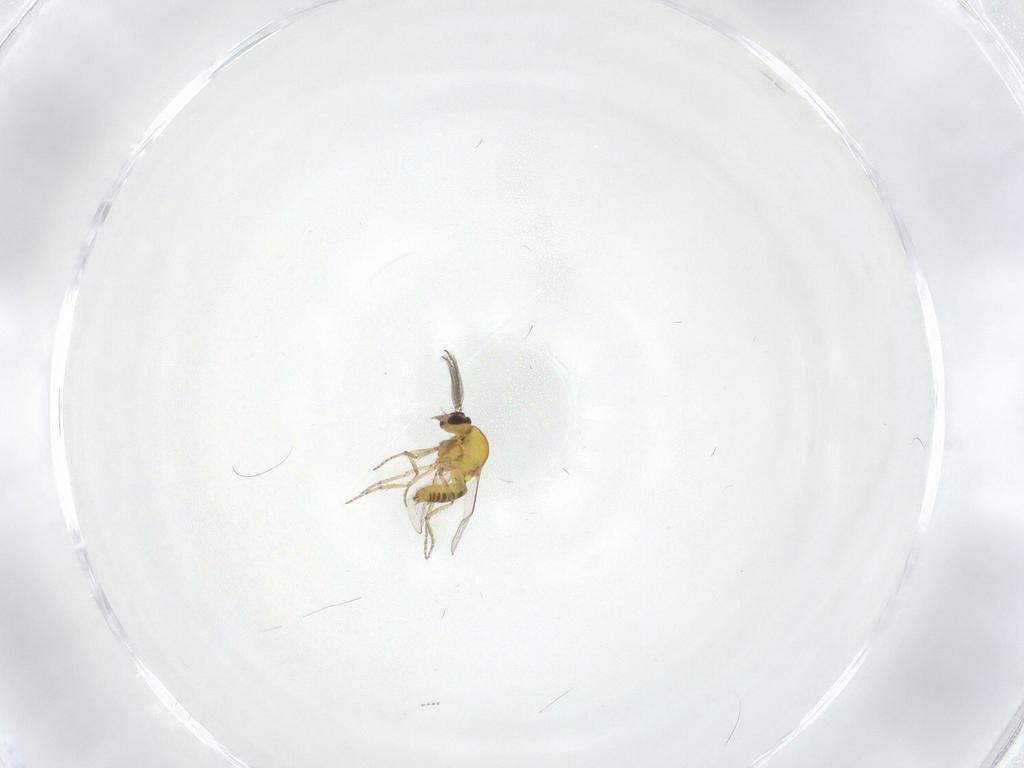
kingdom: Animalia
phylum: Arthropoda
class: Insecta
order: Diptera
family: Cecidomyiidae
